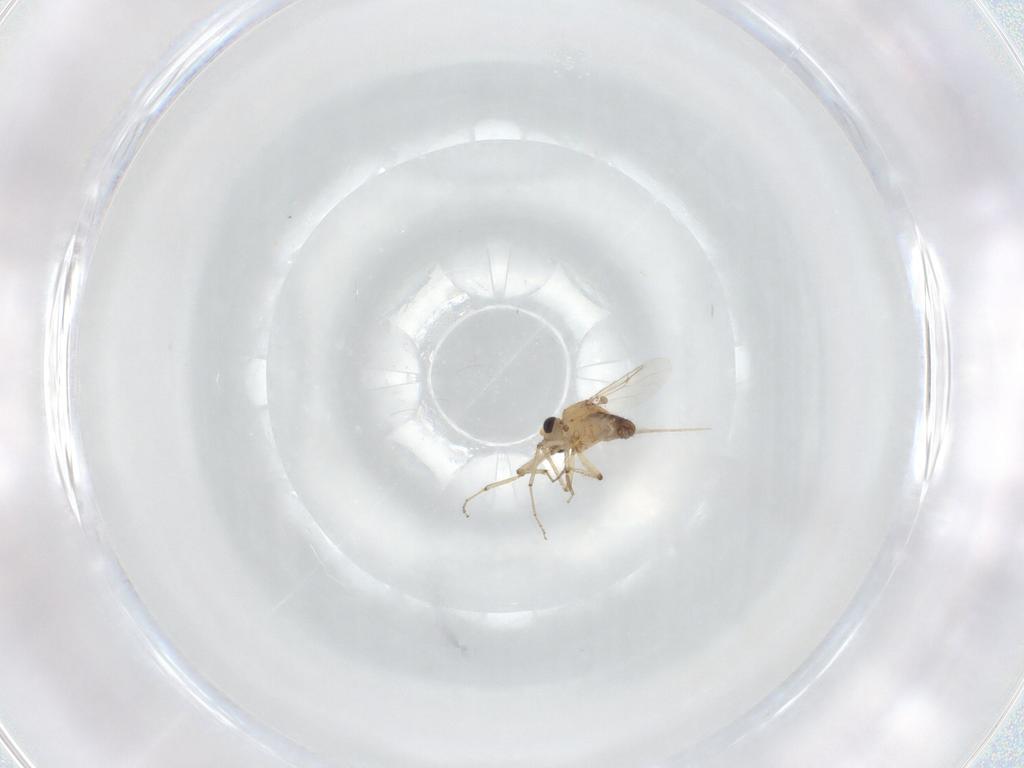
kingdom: Animalia
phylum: Arthropoda
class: Insecta
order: Diptera
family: Ceratopogonidae
